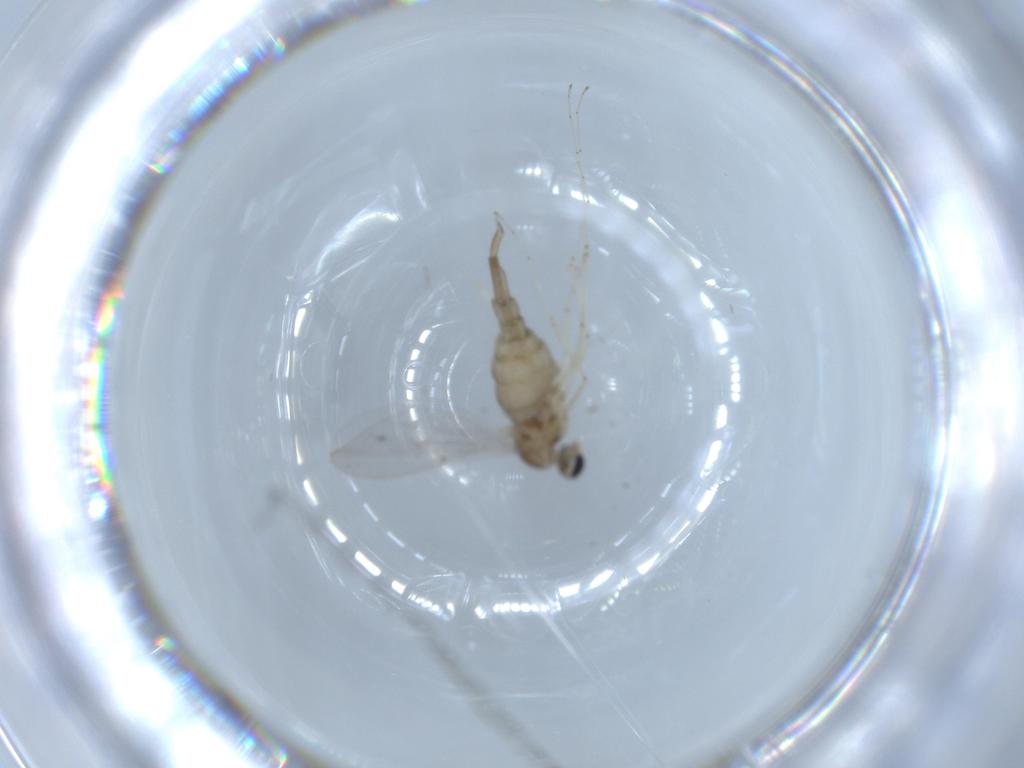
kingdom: Animalia
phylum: Arthropoda
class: Insecta
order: Diptera
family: Cecidomyiidae
